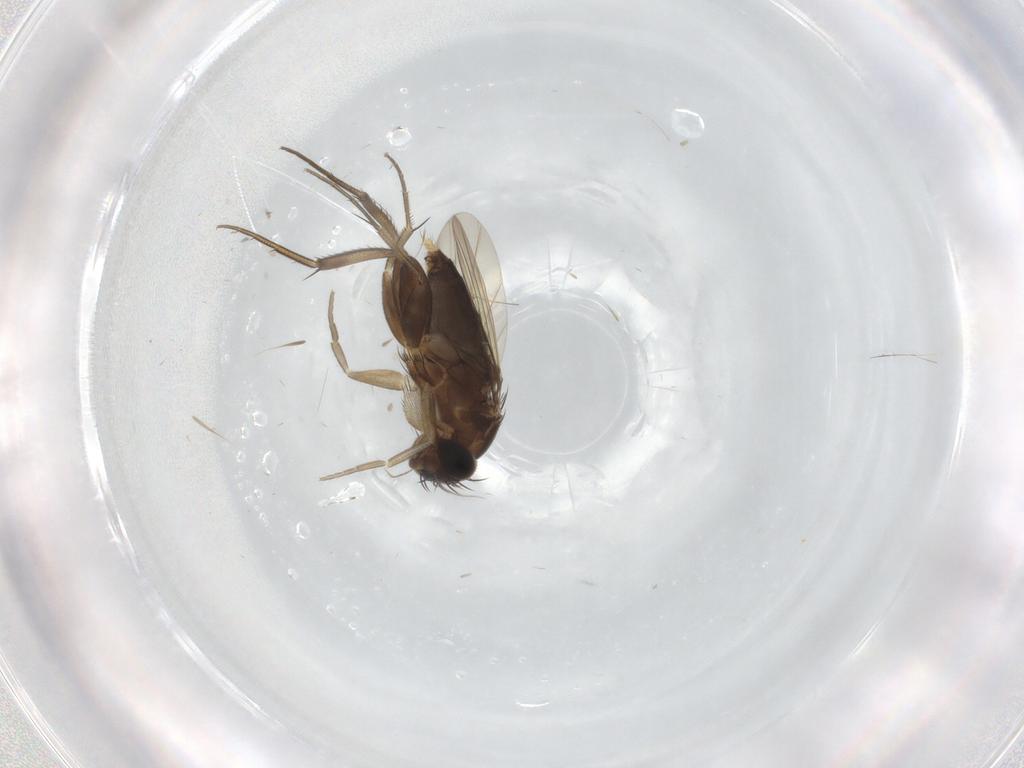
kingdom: Animalia
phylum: Arthropoda
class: Insecta
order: Diptera
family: Phoridae
